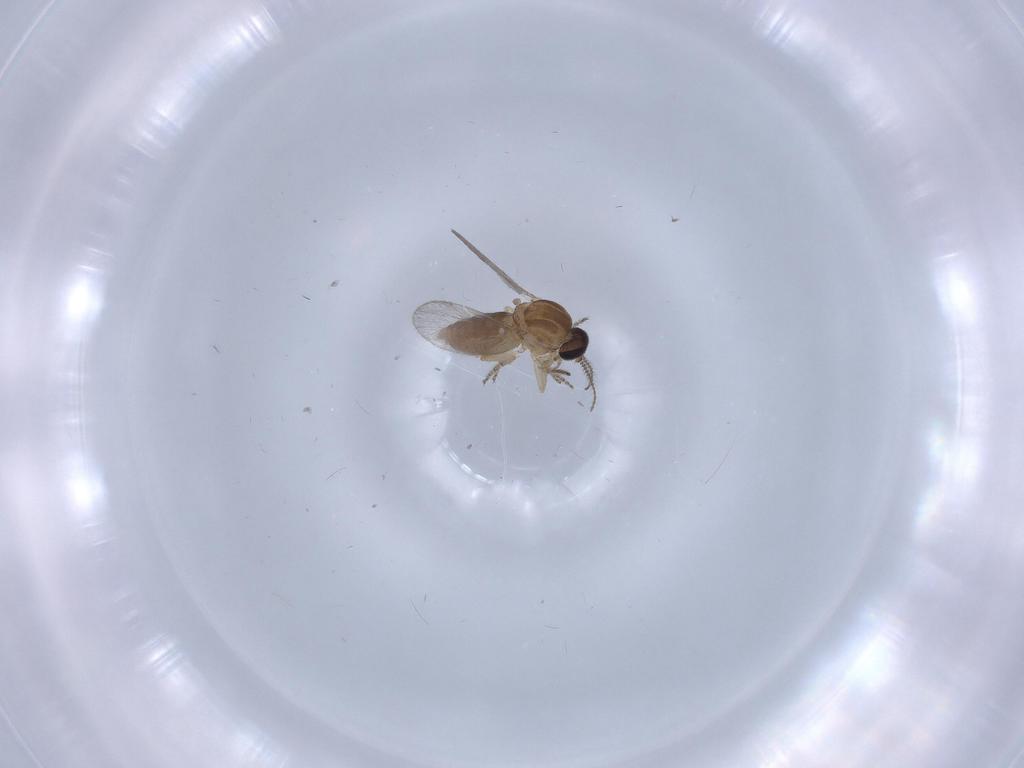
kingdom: Animalia
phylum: Arthropoda
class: Insecta
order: Diptera
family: Ceratopogonidae
